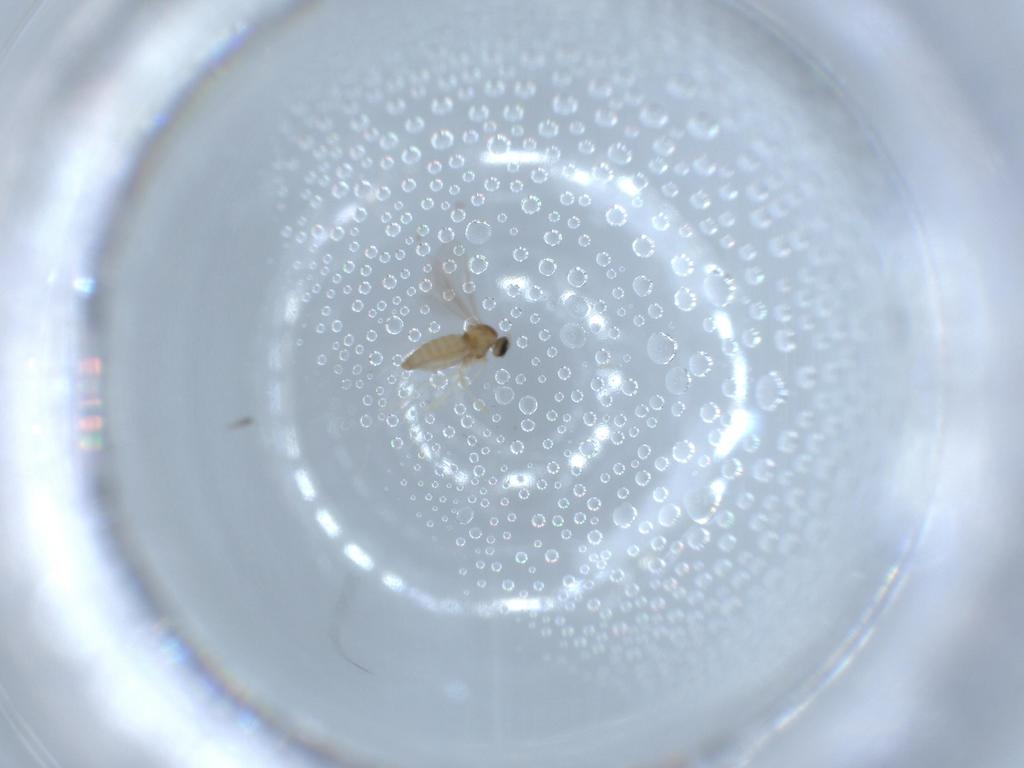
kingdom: Animalia
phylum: Arthropoda
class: Insecta
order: Diptera
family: Cecidomyiidae
